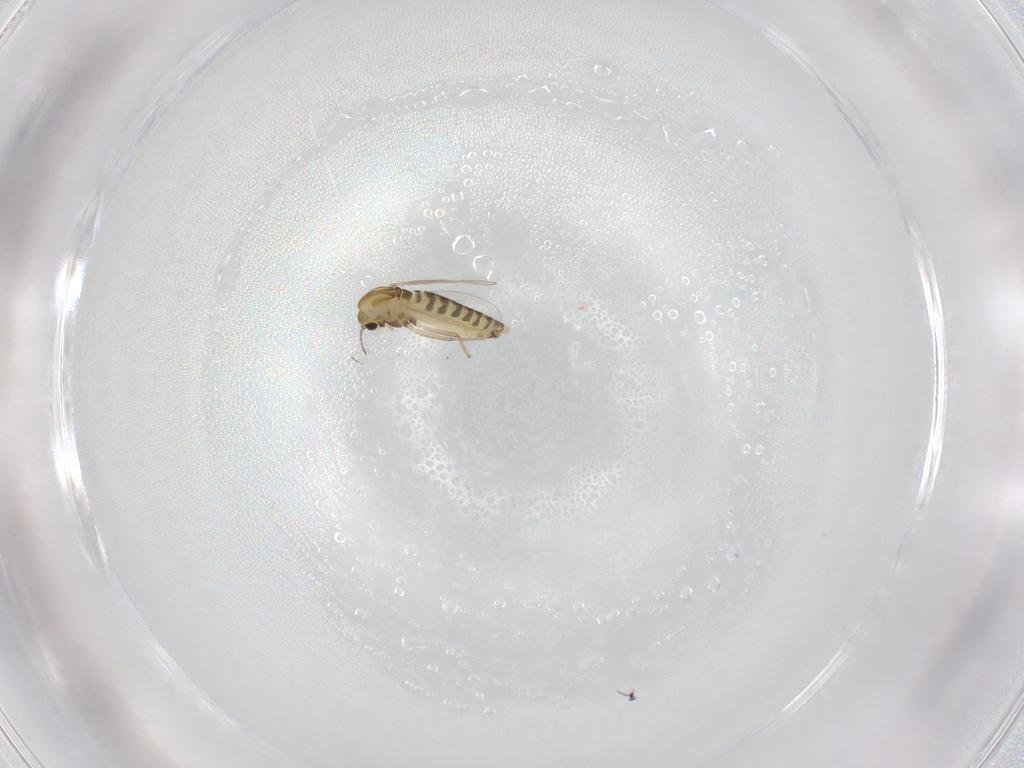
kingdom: Animalia
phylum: Arthropoda
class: Insecta
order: Diptera
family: Chironomidae
